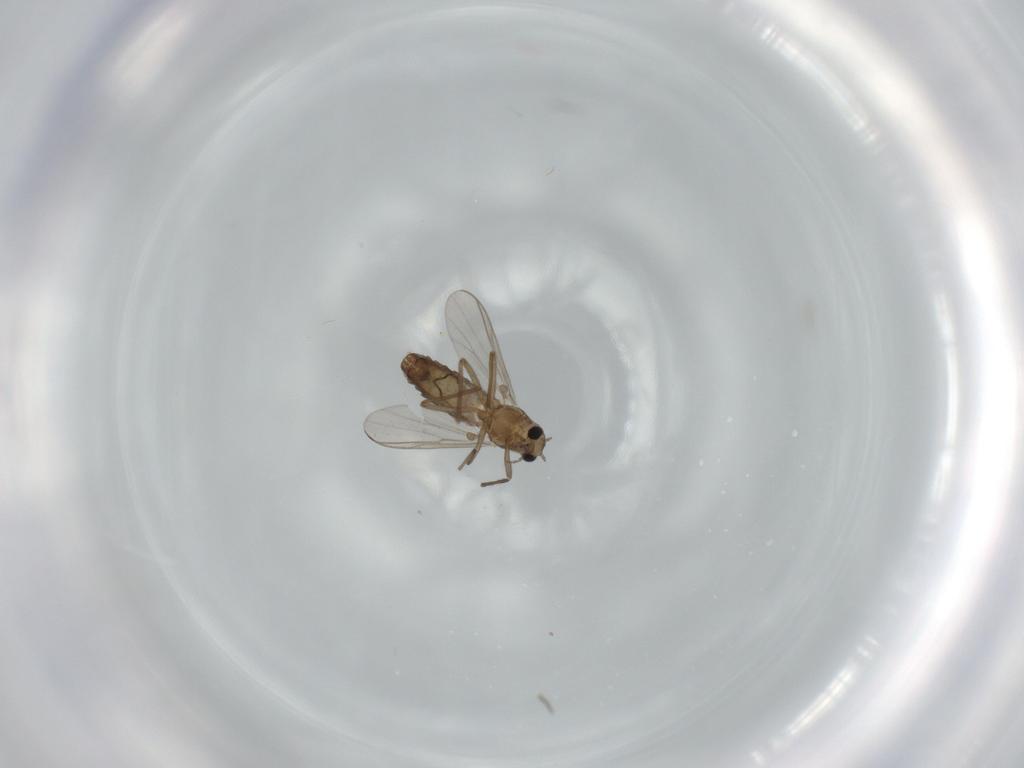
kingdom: Animalia
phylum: Arthropoda
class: Insecta
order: Diptera
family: Chironomidae
